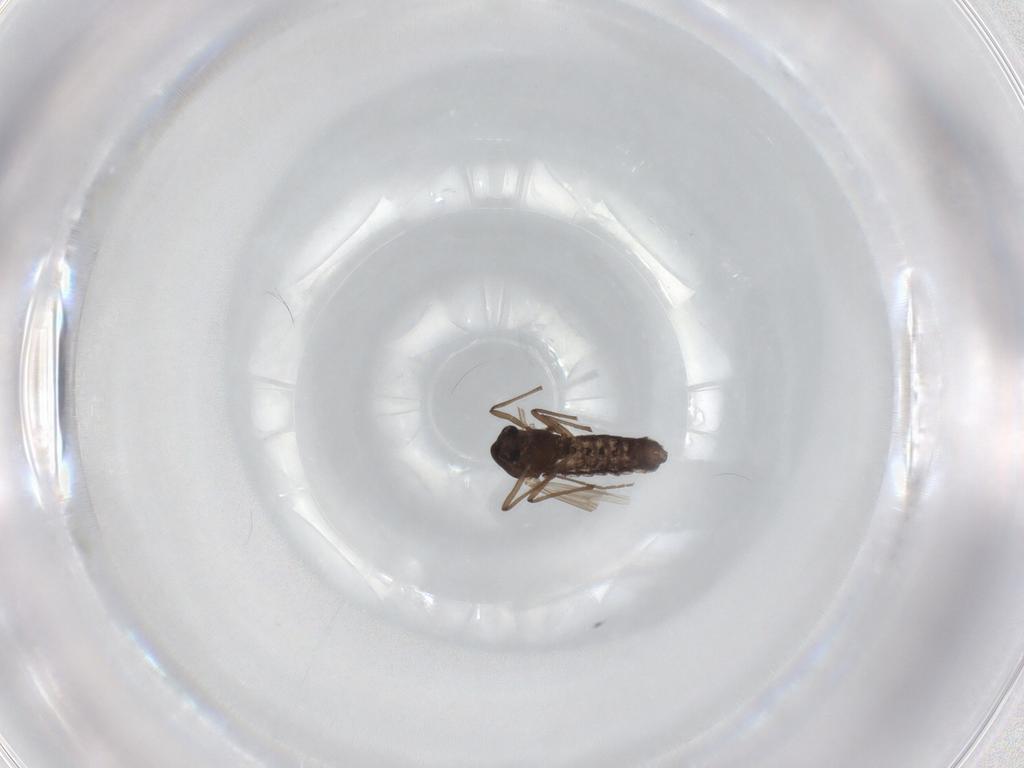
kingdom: Animalia
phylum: Arthropoda
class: Insecta
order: Diptera
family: Chironomidae
